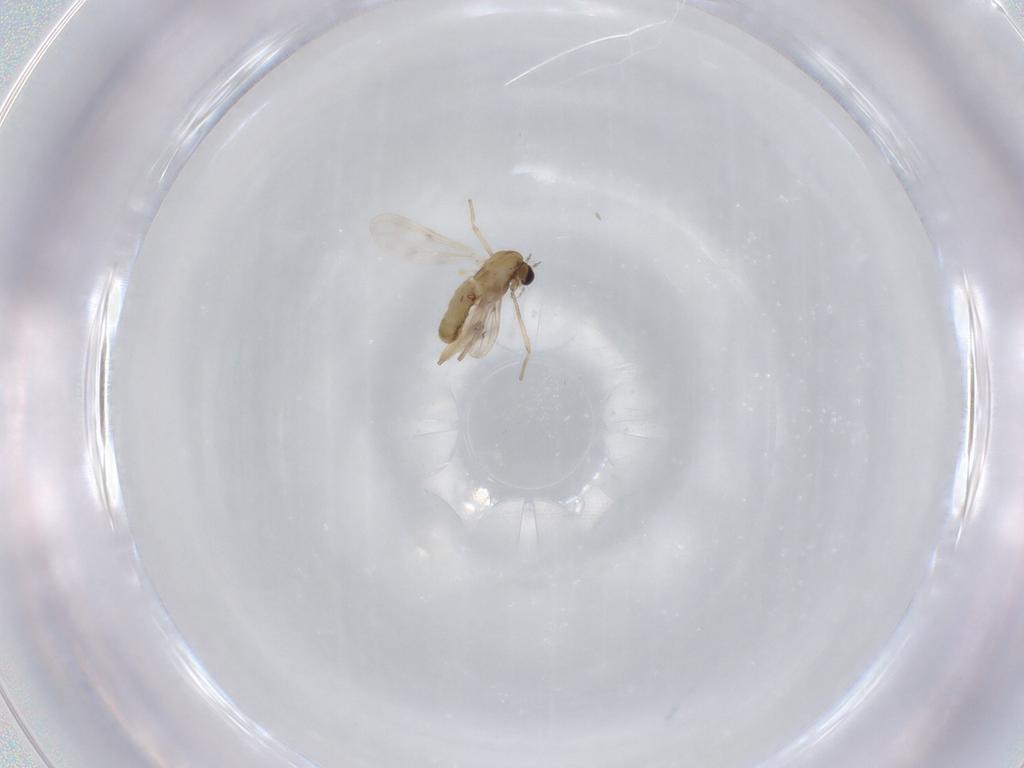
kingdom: Animalia
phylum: Arthropoda
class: Insecta
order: Diptera
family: Chironomidae
